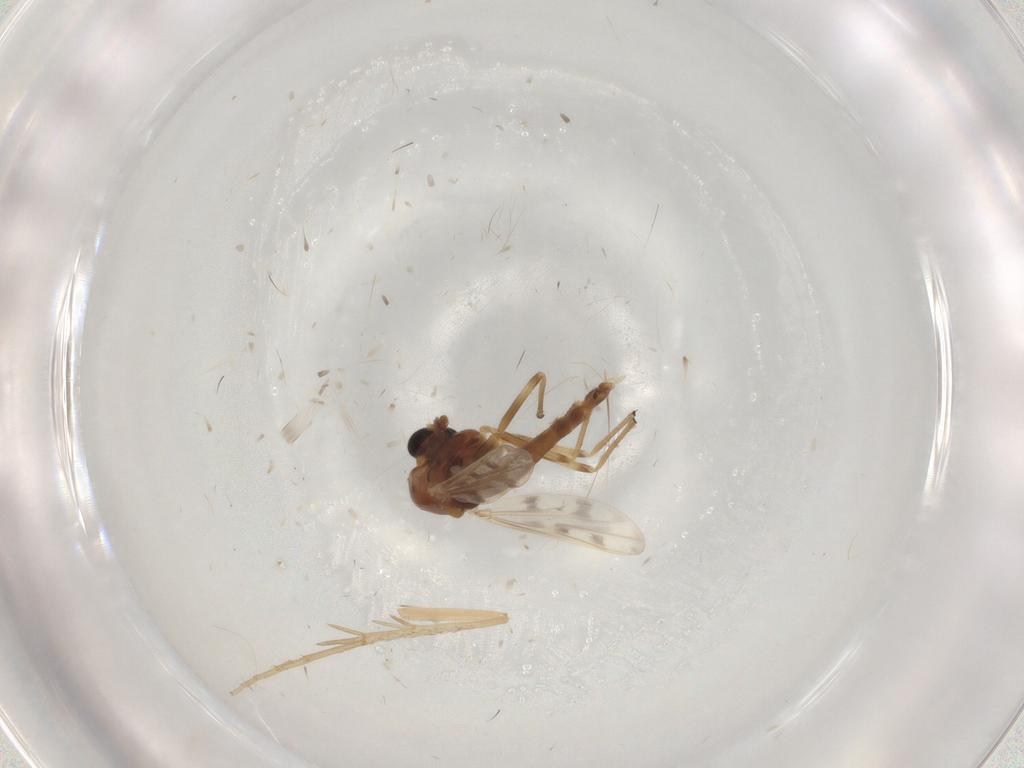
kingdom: Animalia
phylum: Arthropoda
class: Insecta
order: Diptera
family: Chironomidae
